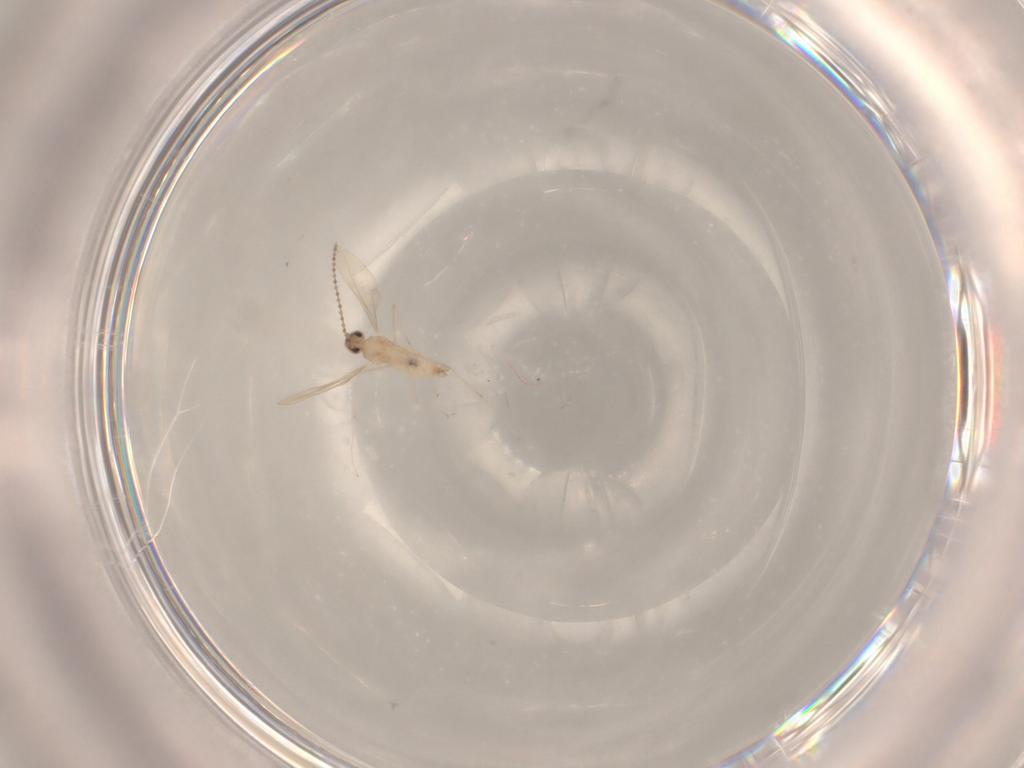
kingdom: Animalia
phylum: Arthropoda
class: Insecta
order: Diptera
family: Cecidomyiidae
